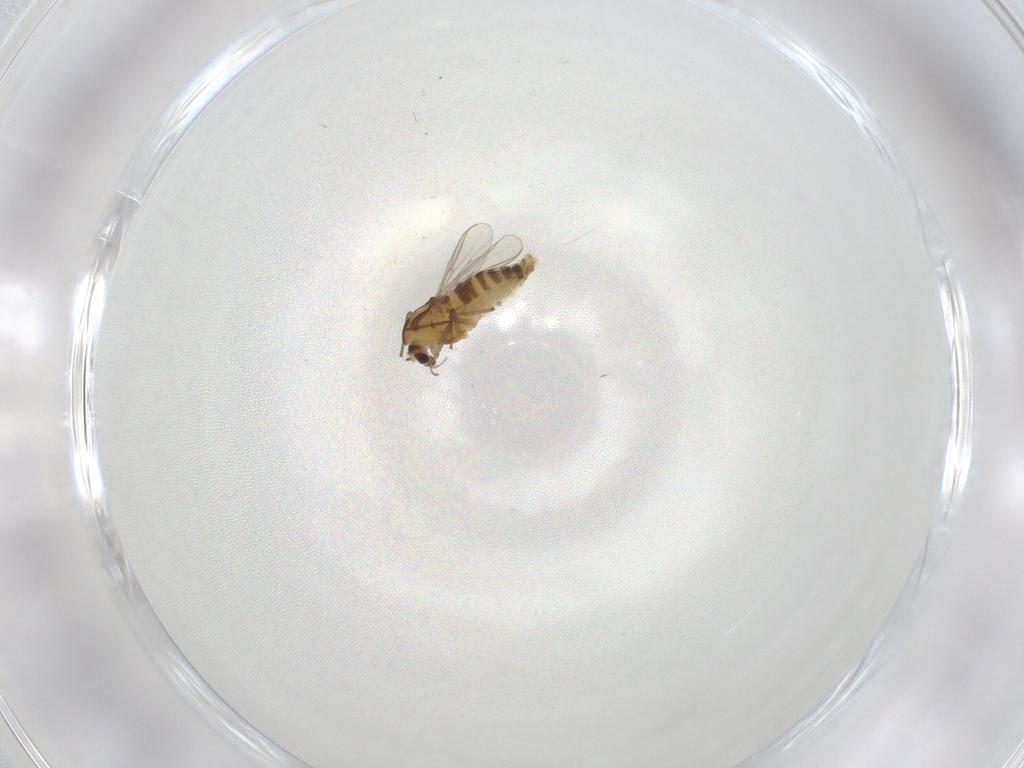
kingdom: Animalia
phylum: Arthropoda
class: Insecta
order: Diptera
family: Chironomidae
